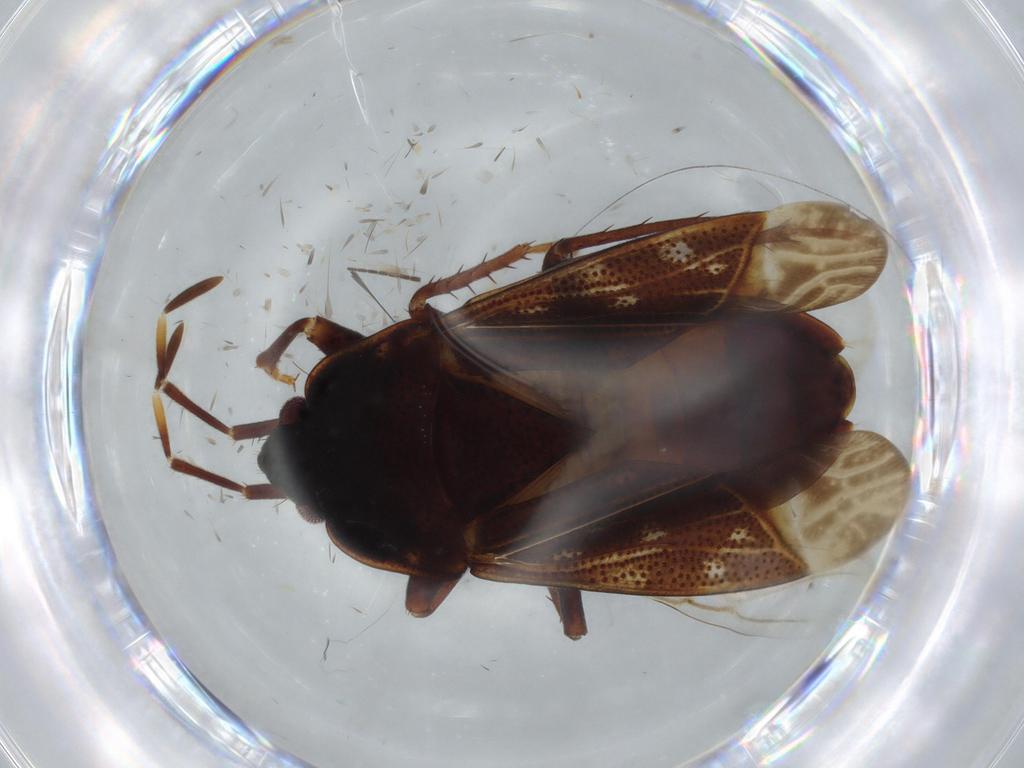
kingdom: Animalia
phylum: Arthropoda
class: Insecta
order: Hemiptera
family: Rhyparochromidae
